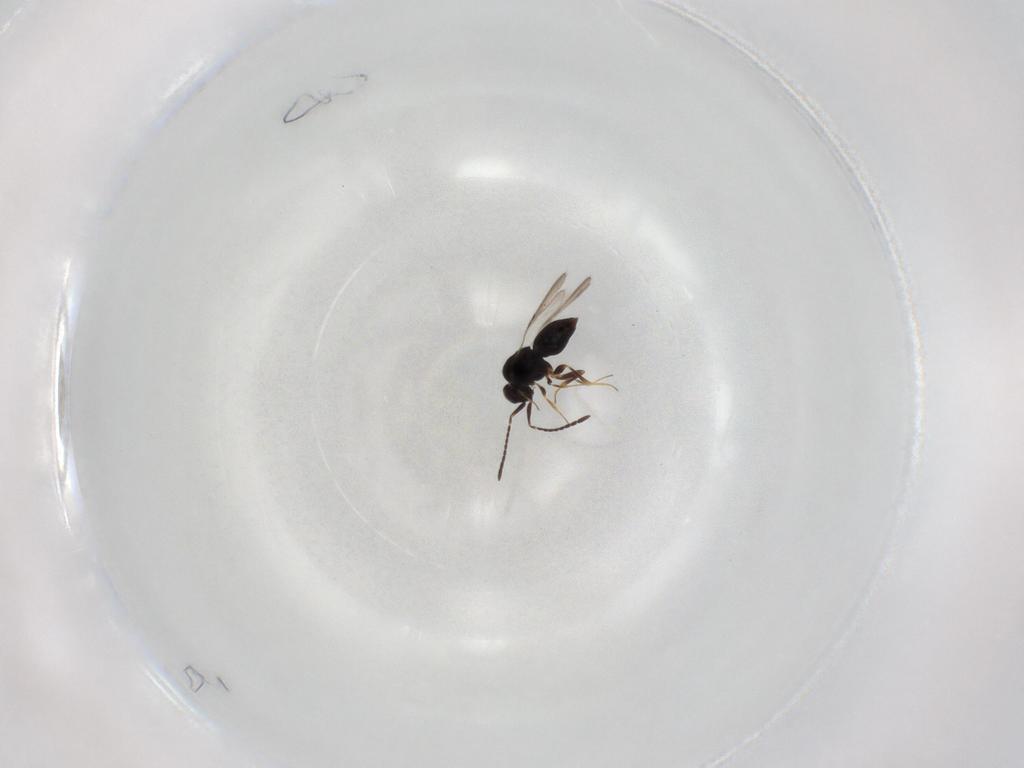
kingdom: Animalia
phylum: Arthropoda
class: Insecta
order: Hymenoptera
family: Ceraphronidae
